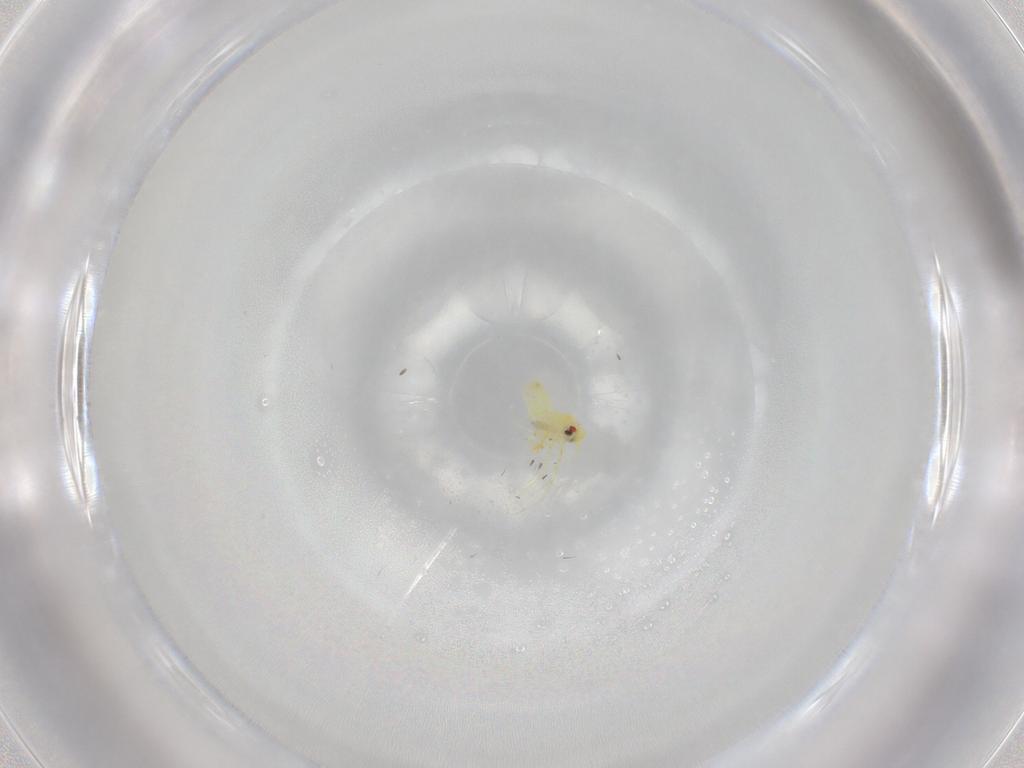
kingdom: Animalia
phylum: Arthropoda
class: Insecta
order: Hemiptera
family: Aleyrodidae
